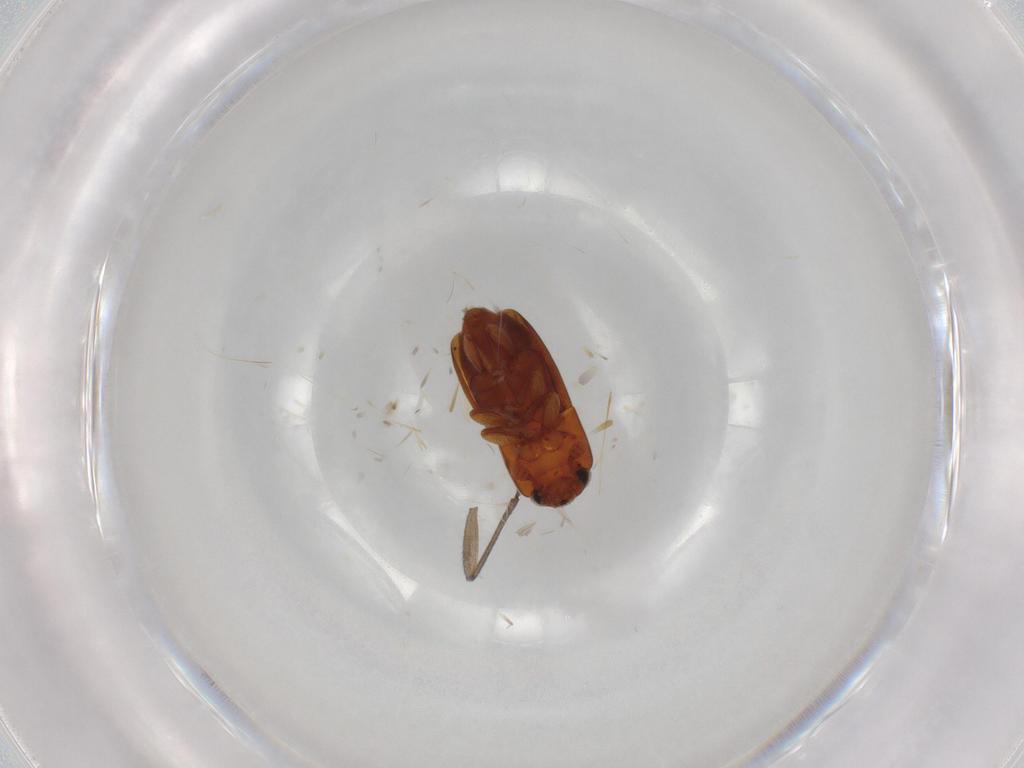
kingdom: Animalia
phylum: Arthropoda
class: Insecta
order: Coleoptera
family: Nitidulidae
